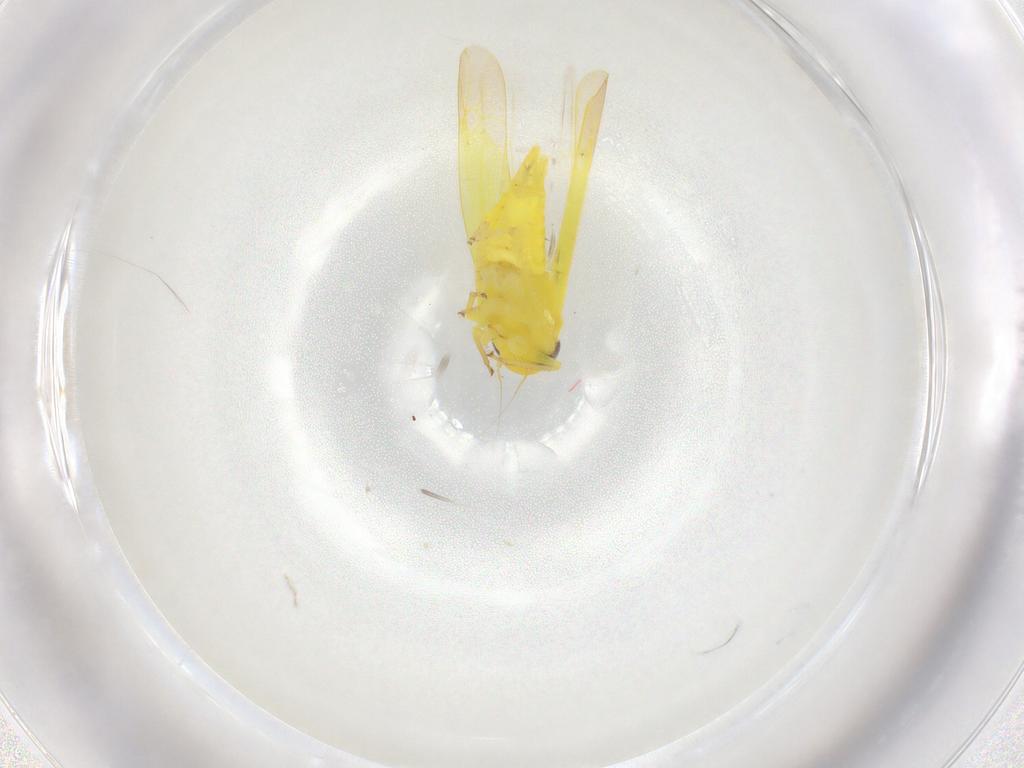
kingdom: Animalia
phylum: Arthropoda
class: Insecta
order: Hemiptera
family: Cicadellidae
